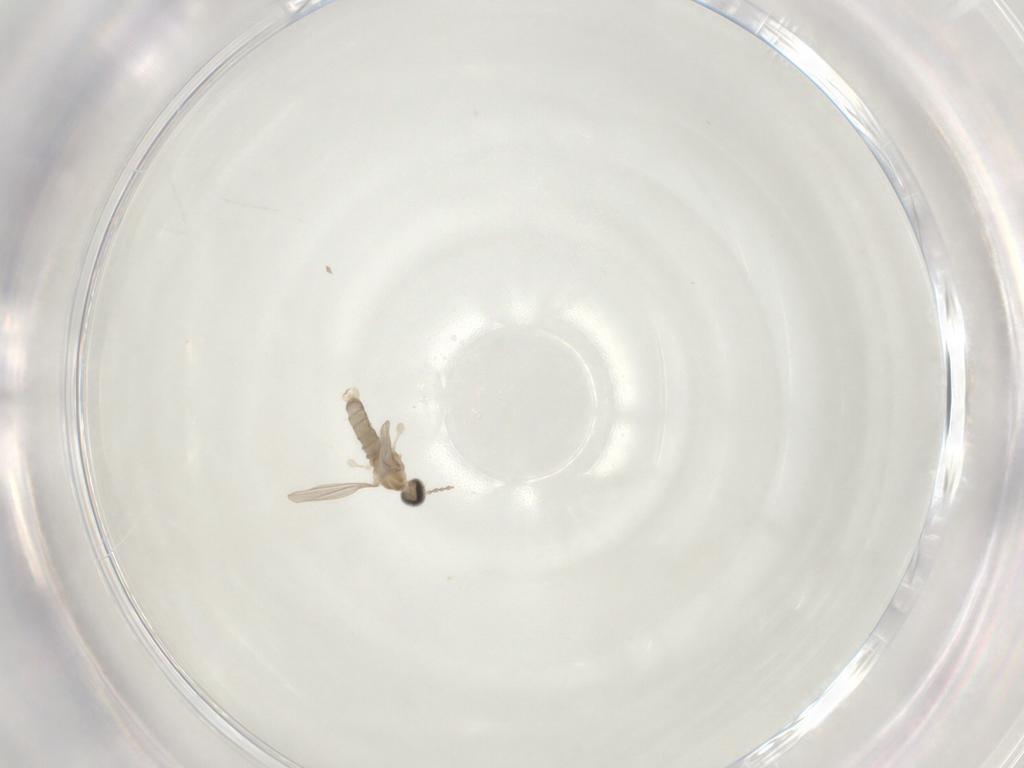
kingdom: Animalia
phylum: Arthropoda
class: Insecta
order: Diptera
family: Cecidomyiidae
